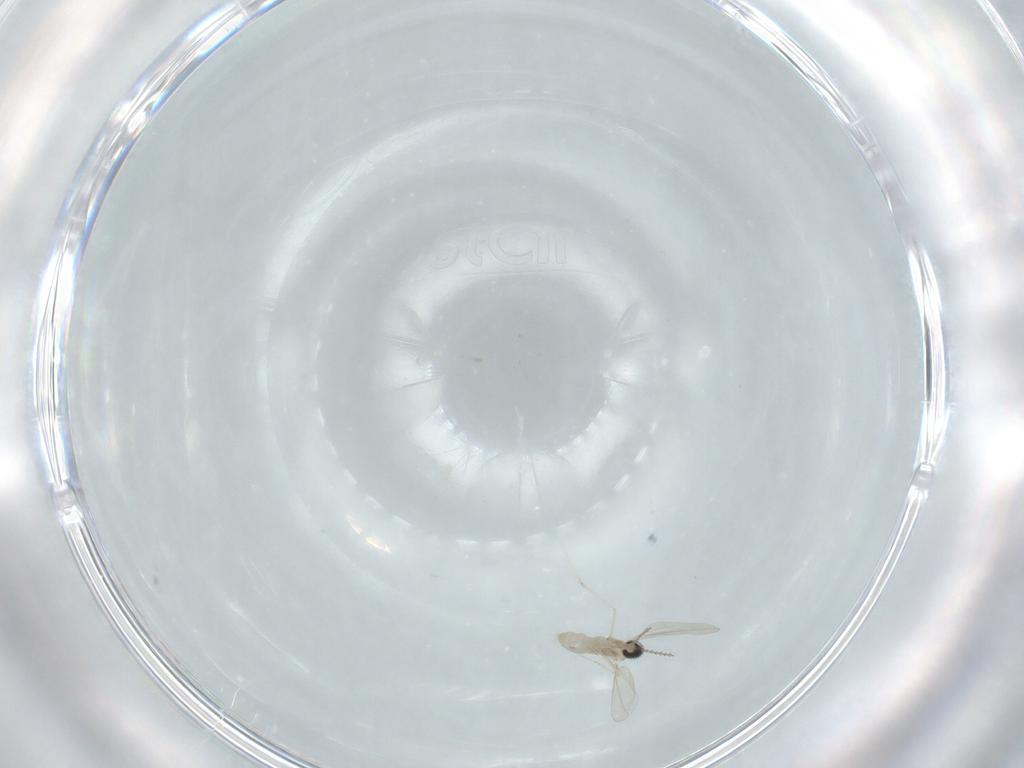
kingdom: Animalia
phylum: Arthropoda
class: Insecta
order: Diptera
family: Cecidomyiidae
